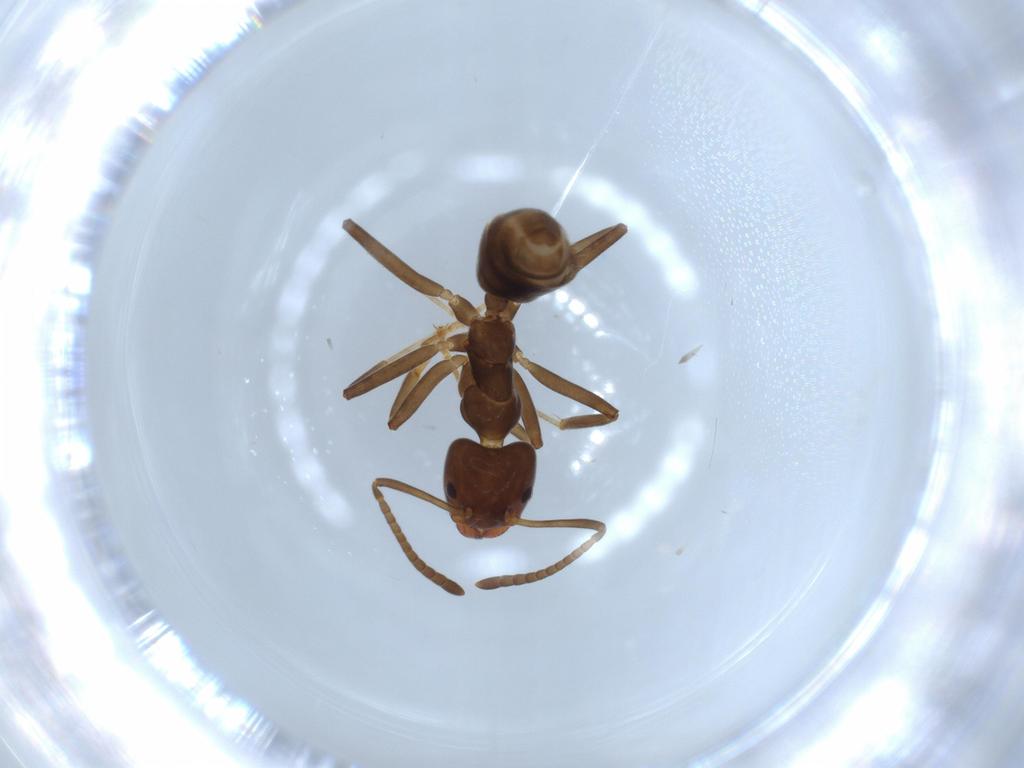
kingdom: Animalia
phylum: Arthropoda
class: Insecta
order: Hymenoptera
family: Formicidae
